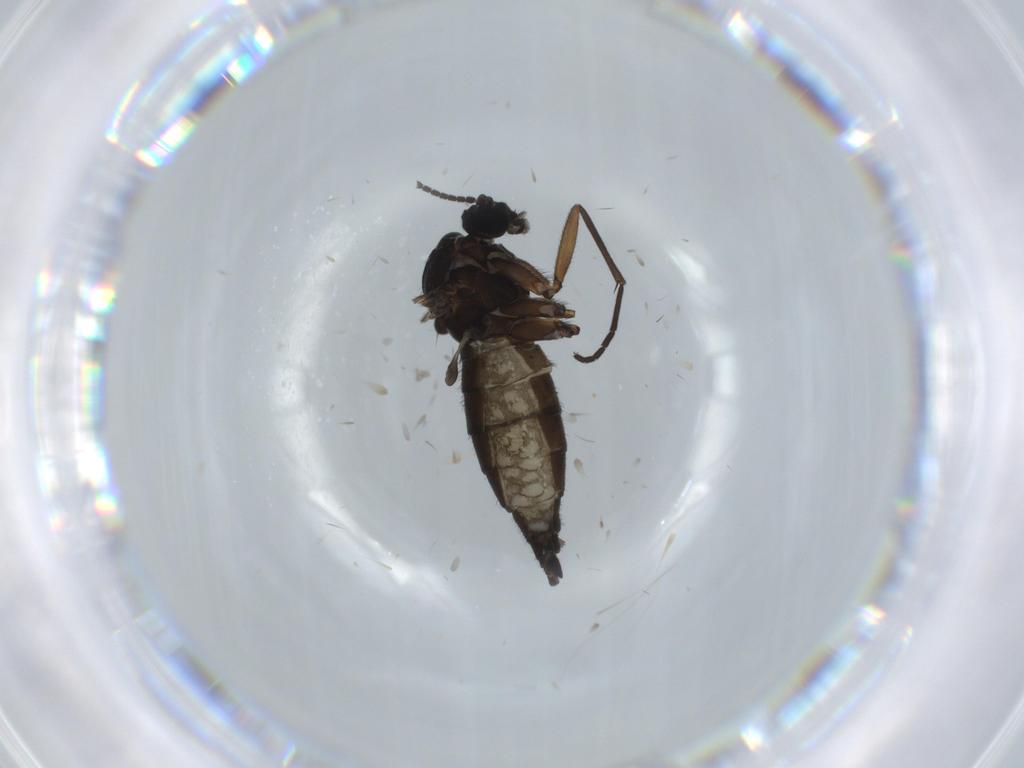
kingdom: Animalia
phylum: Arthropoda
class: Insecta
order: Diptera
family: Sciaridae
